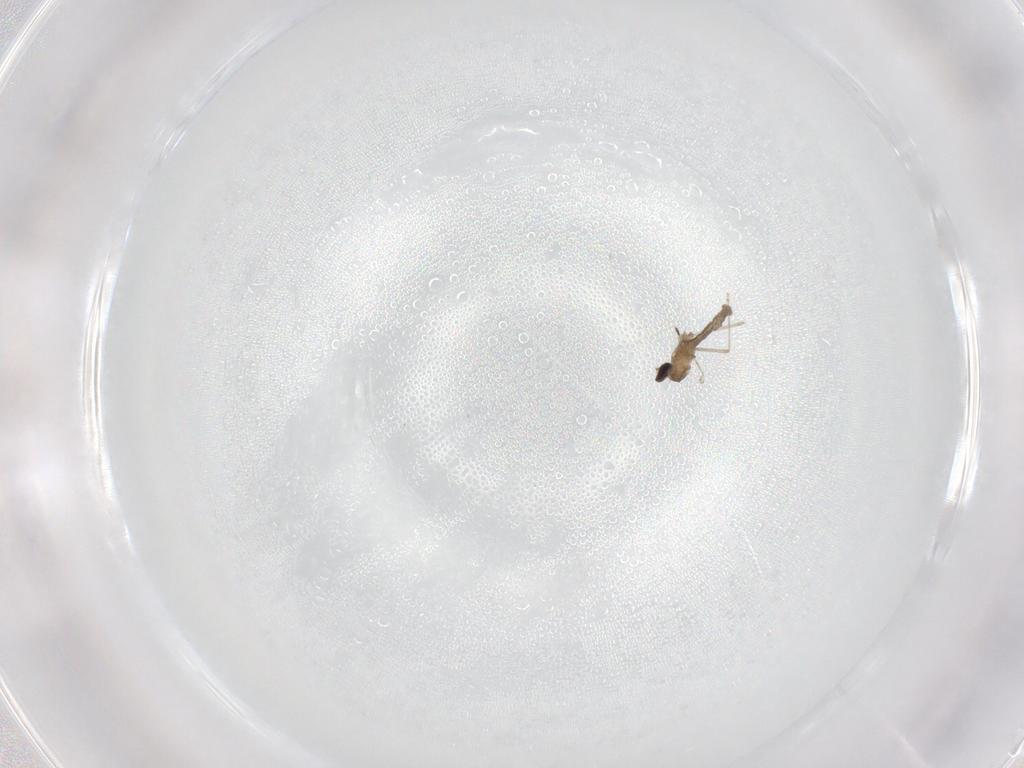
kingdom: Animalia
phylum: Arthropoda
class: Insecta
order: Diptera
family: Cecidomyiidae
